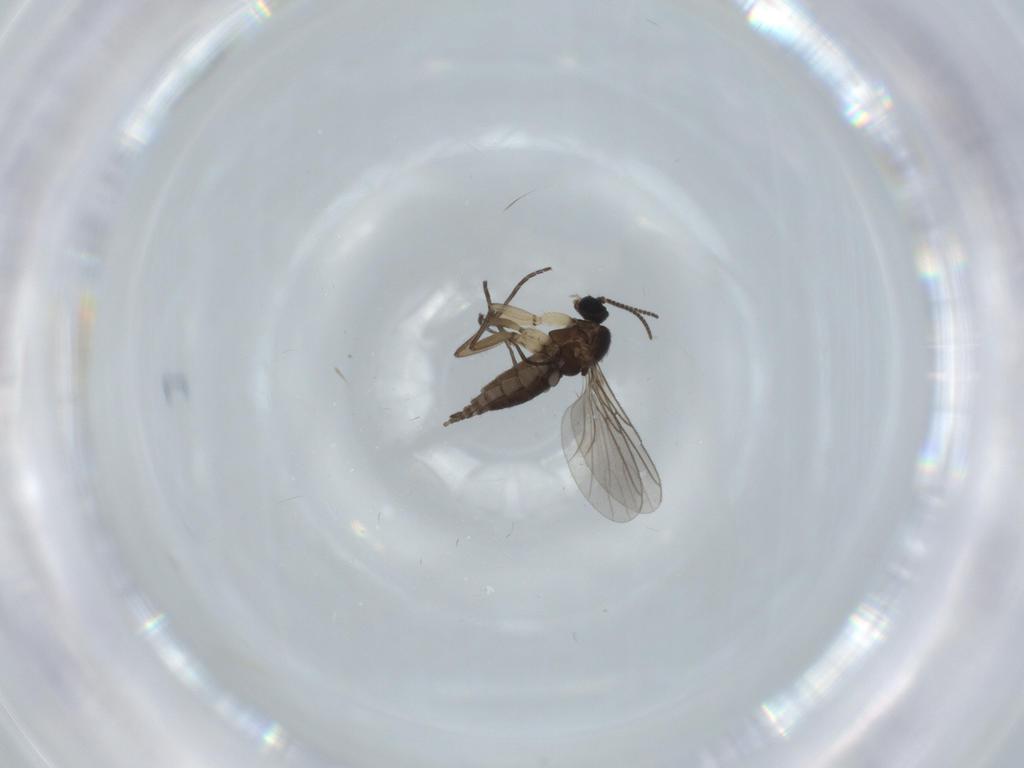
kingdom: Animalia
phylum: Arthropoda
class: Insecta
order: Diptera
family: Sciaridae
